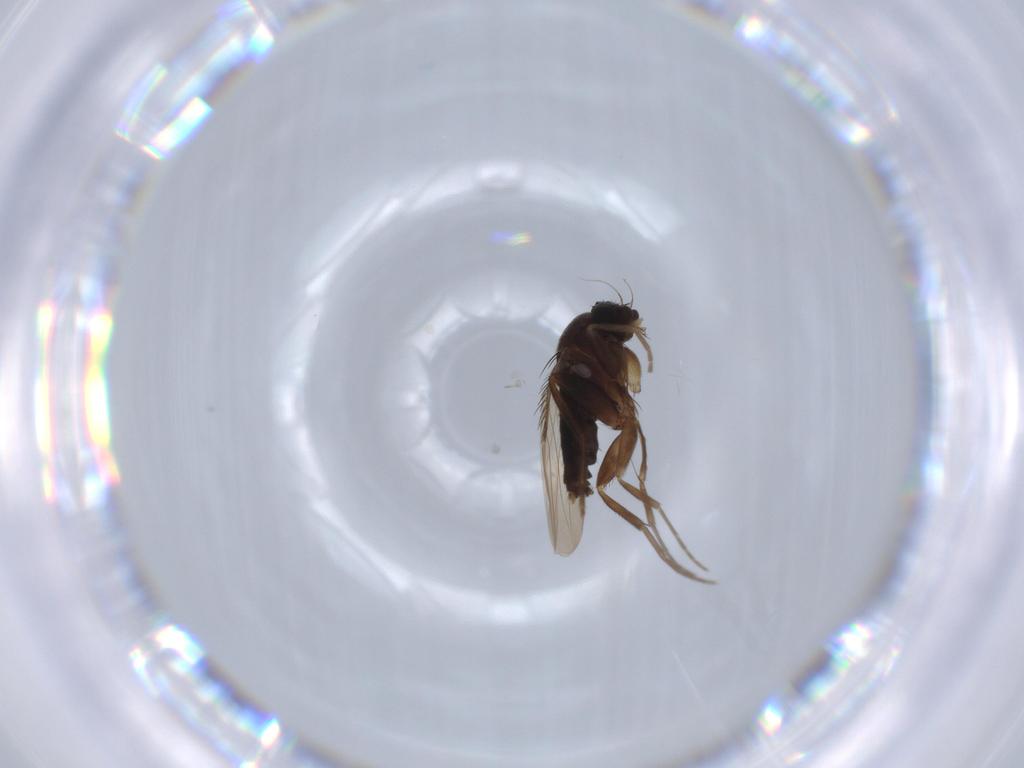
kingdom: Animalia
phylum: Arthropoda
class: Insecta
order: Diptera
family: Phoridae
